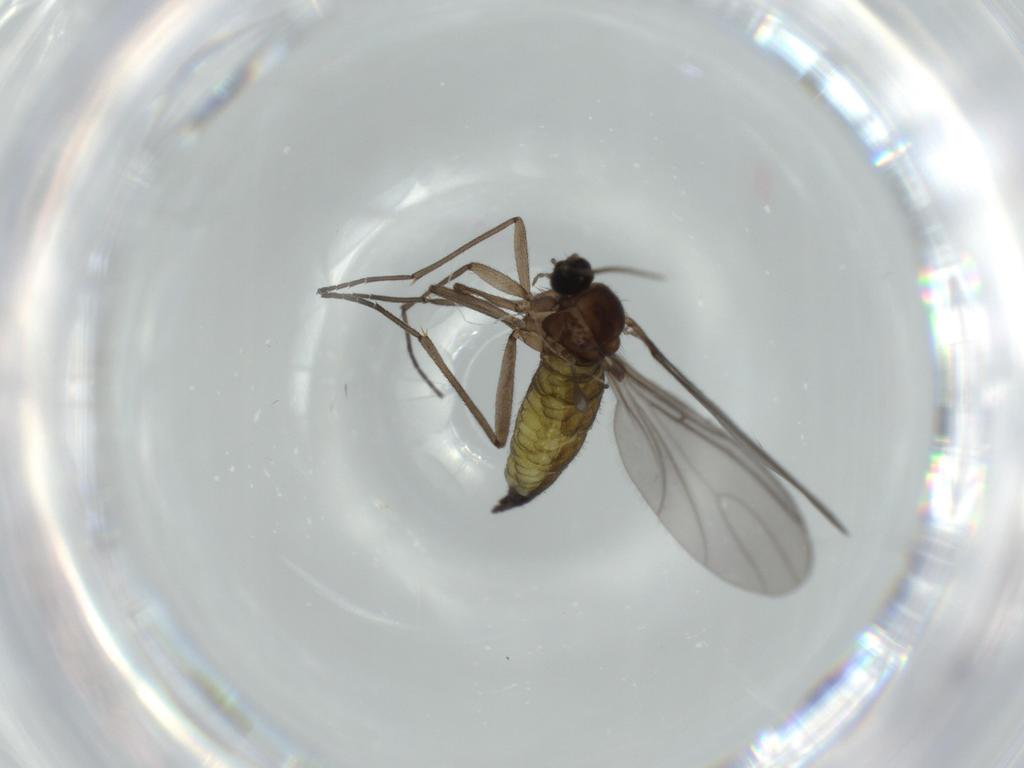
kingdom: Animalia
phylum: Arthropoda
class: Insecta
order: Diptera
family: Sciaridae
